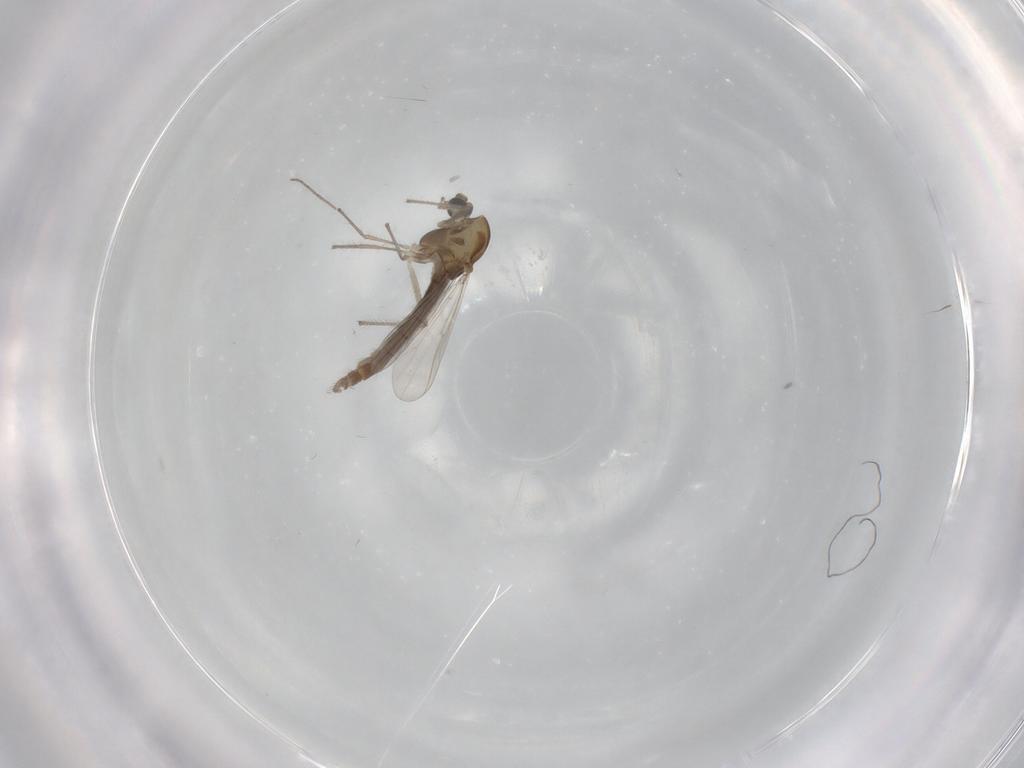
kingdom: Animalia
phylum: Arthropoda
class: Insecta
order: Diptera
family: Chironomidae
